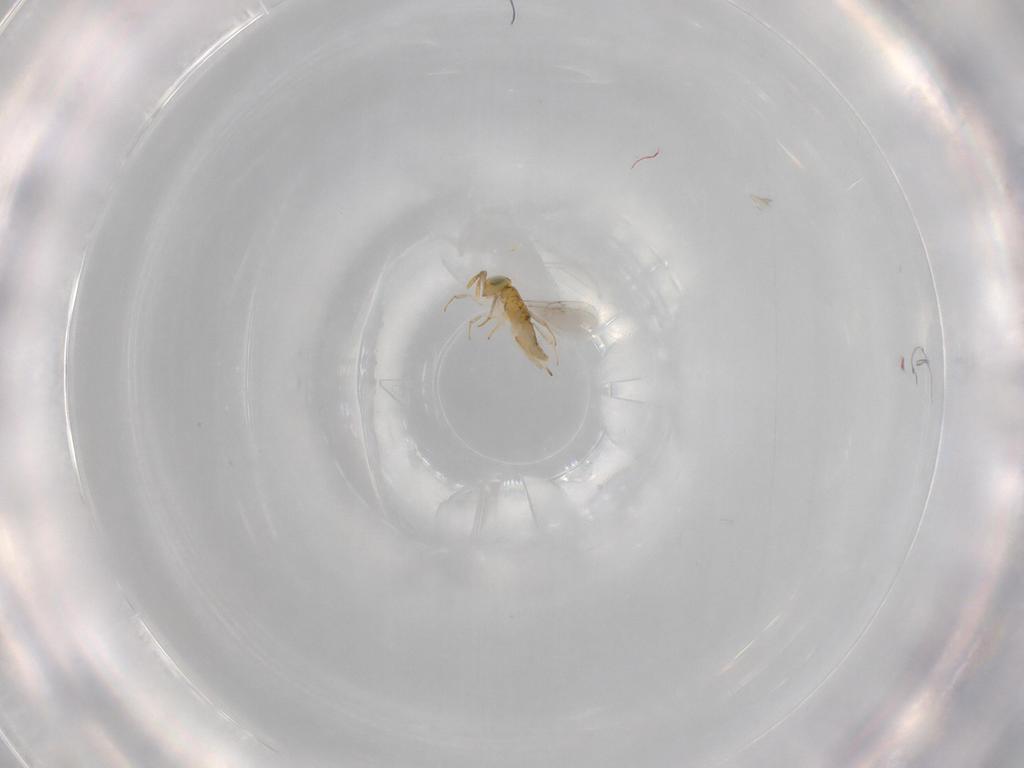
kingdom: Animalia
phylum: Arthropoda
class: Insecta
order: Hymenoptera
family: Encyrtidae
